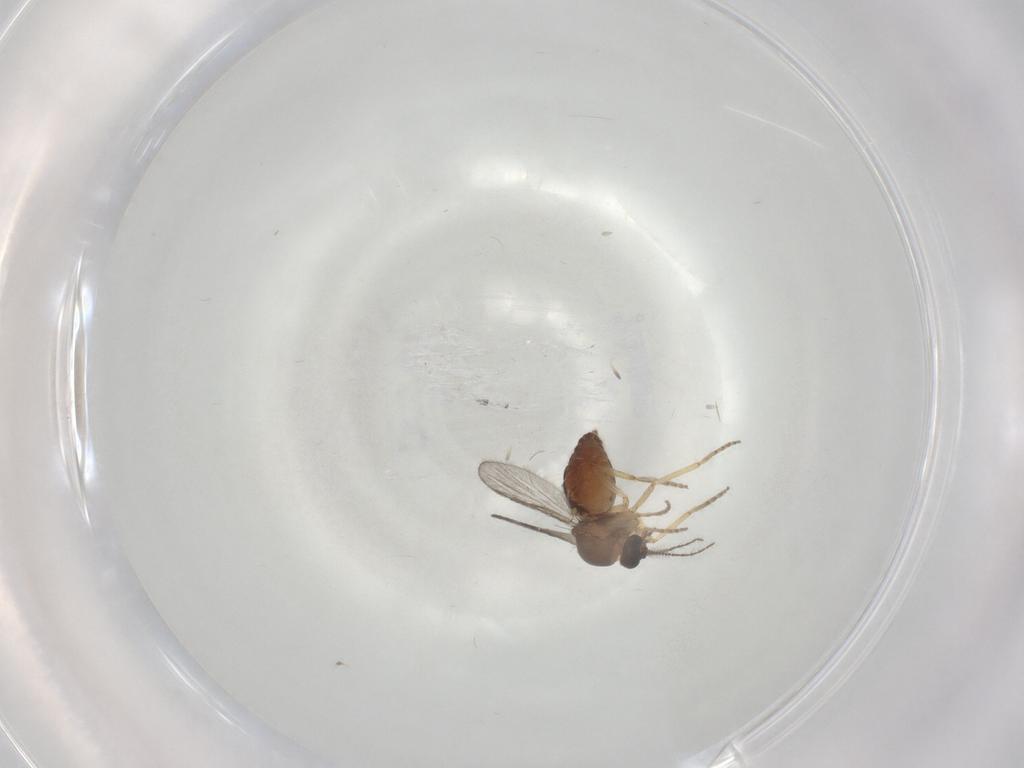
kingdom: Animalia
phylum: Arthropoda
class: Insecta
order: Diptera
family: Ceratopogonidae
